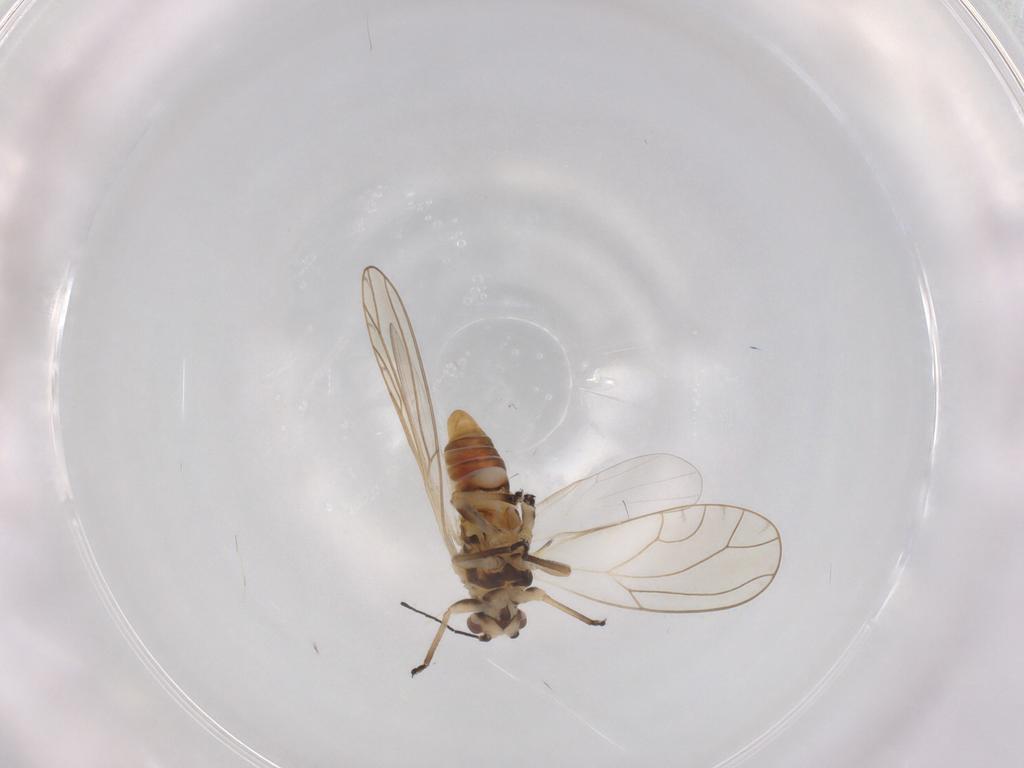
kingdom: Animalia
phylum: Arthropoda
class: Insecta
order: Hemiptera
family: Triozidae
